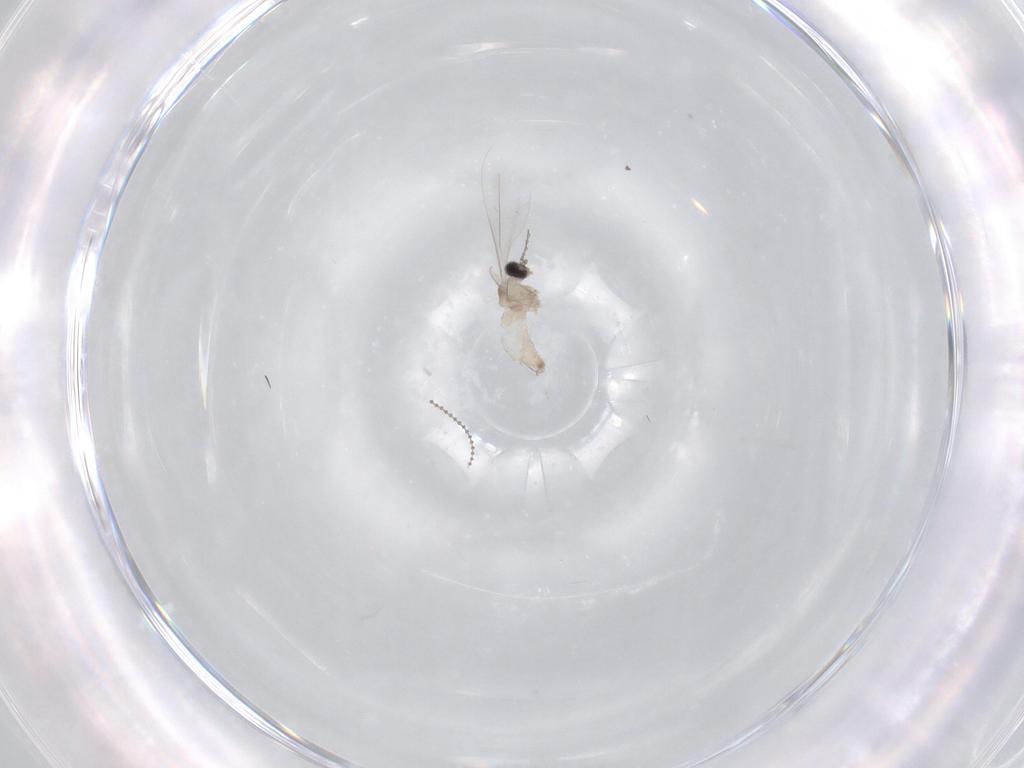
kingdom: Animalia
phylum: Arthropoda
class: Insecta
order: Diptera
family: Cecidomyiidae
